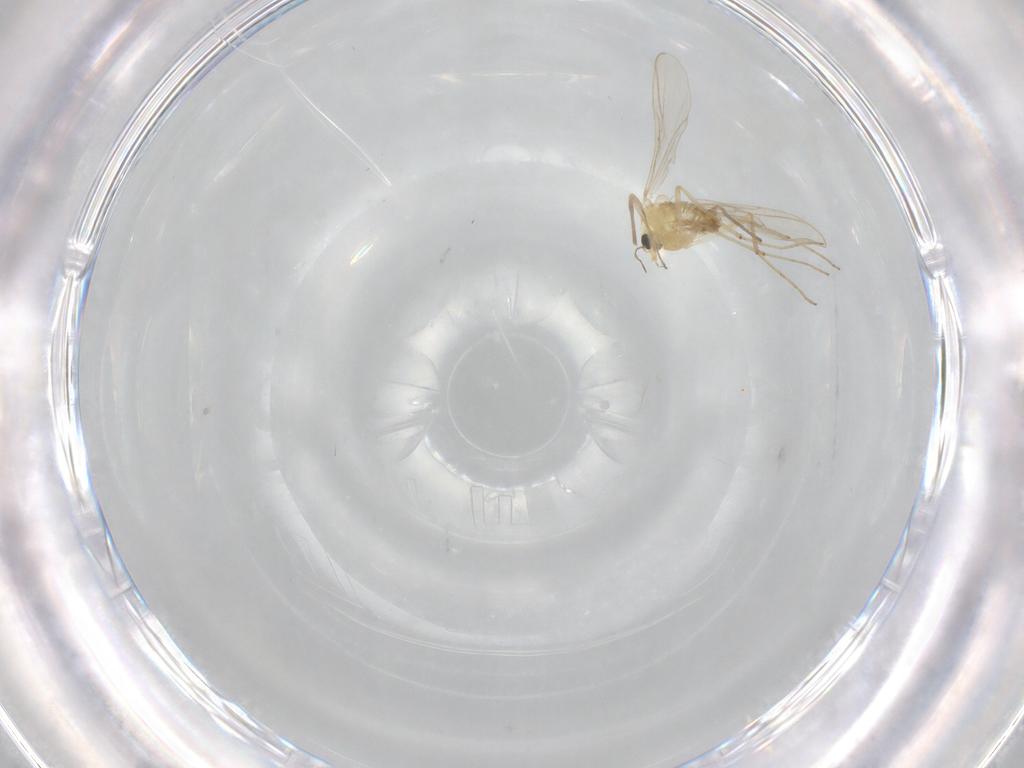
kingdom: Animalia
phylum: Arthropoda
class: Insecta
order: Diptera
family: Chironomidae
